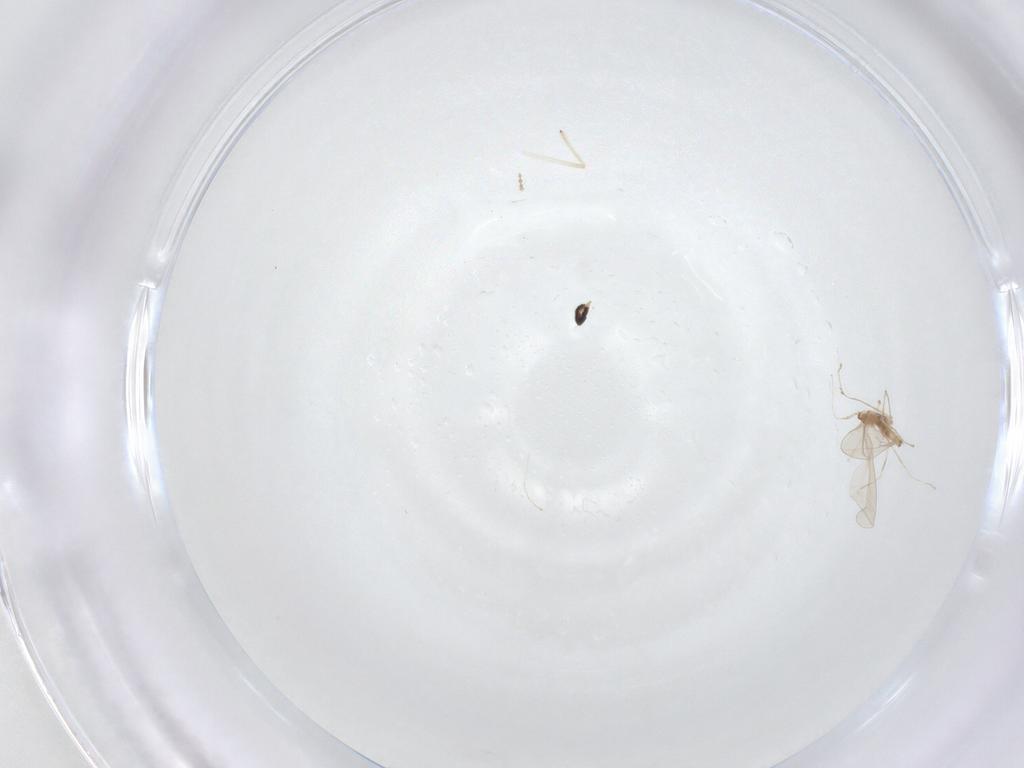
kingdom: Animalia
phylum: Arthropoda
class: Insecta
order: Diptera
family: Cecidomyiidae
